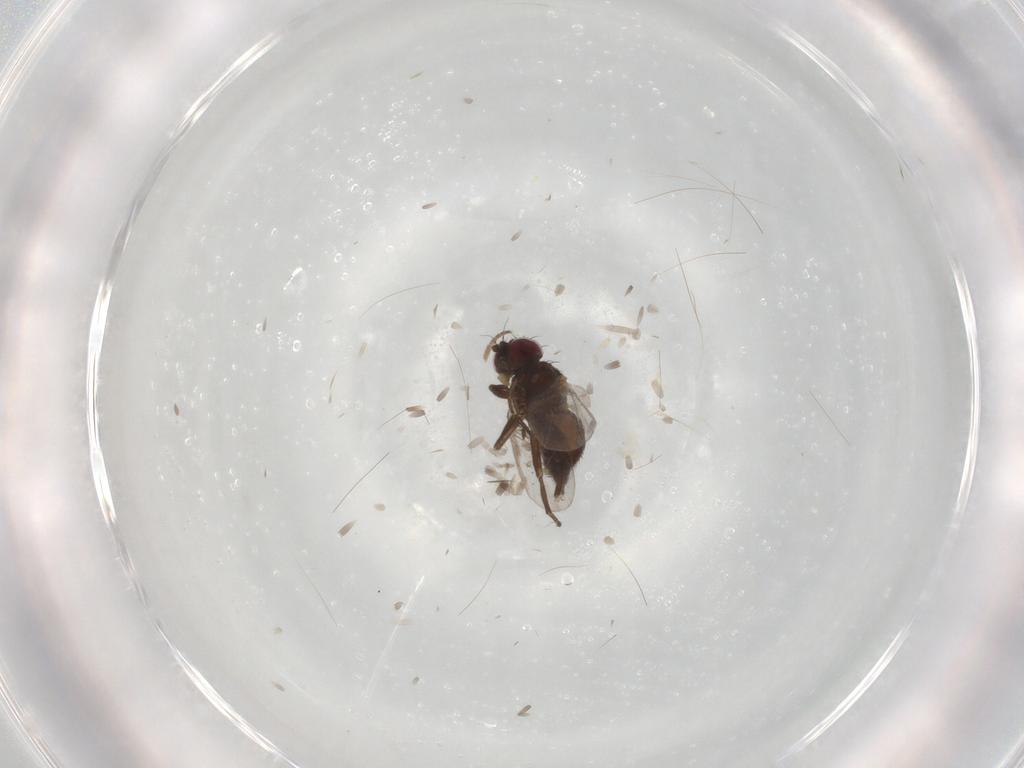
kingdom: Animalia
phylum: Arthropoda
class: Insecta
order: Diptera
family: Agromyzidae
